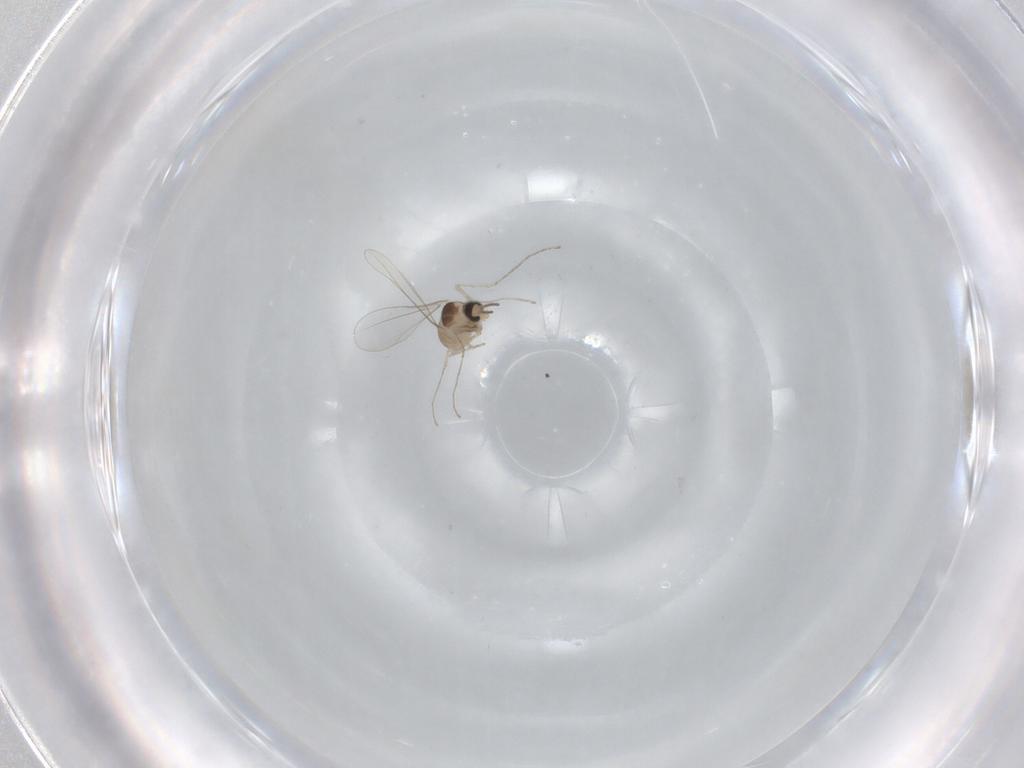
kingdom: Animalia
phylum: Arthropoda
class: Insecta
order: Diptera
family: Cecidomyiidae
